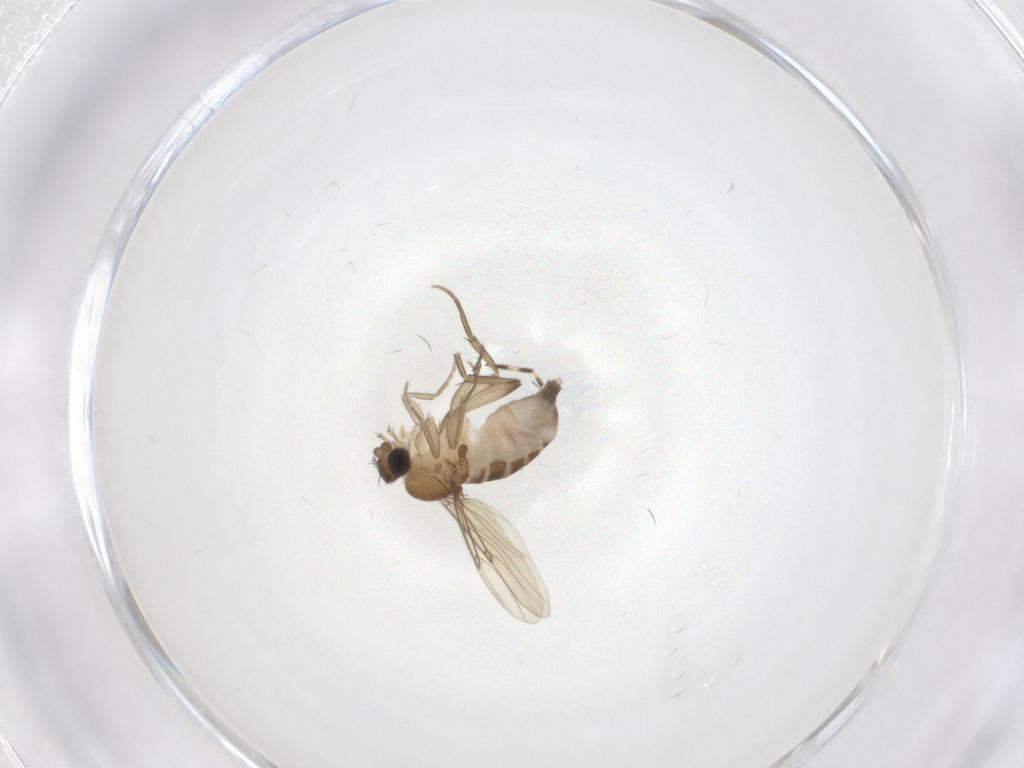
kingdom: Animalia
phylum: Arthropoda
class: Insecta
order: Diptera
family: Phoridae
